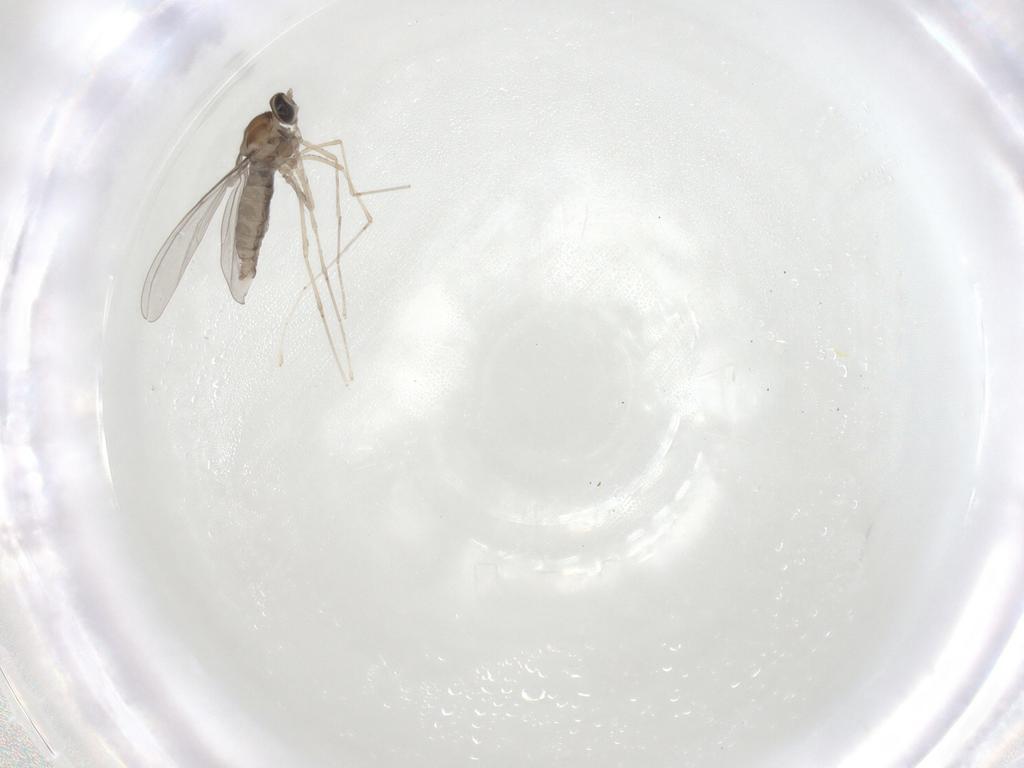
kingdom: Animalia
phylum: Arthropoda
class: Insecta
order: Diptera
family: Cecidomyiidae
